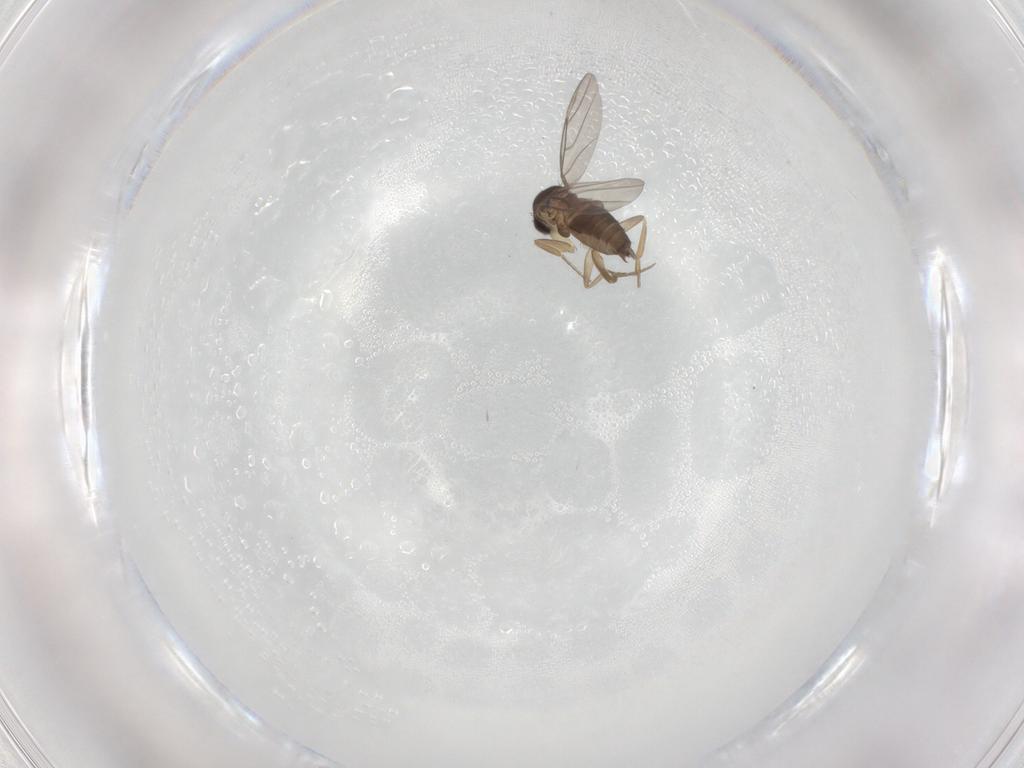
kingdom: Animalia
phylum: Arthropoda
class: Insecta
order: Diptera
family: Phoridae
